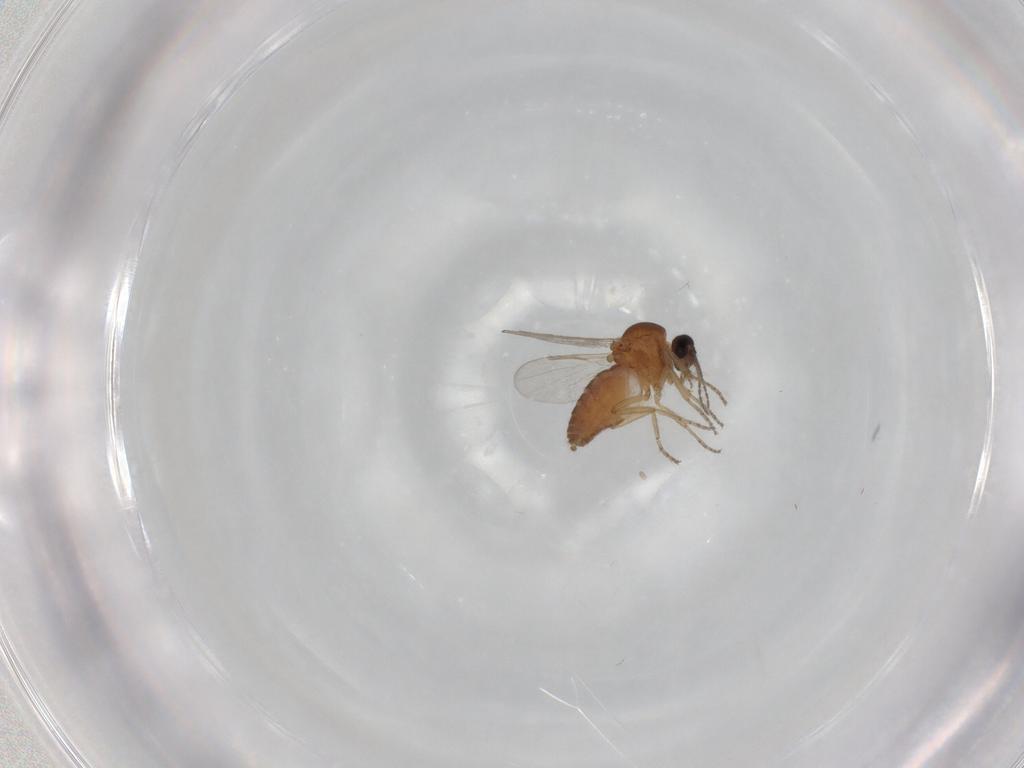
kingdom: Animalia
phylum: Arthropoda
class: Insecta
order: Diptera
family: Ceratopogonidae
